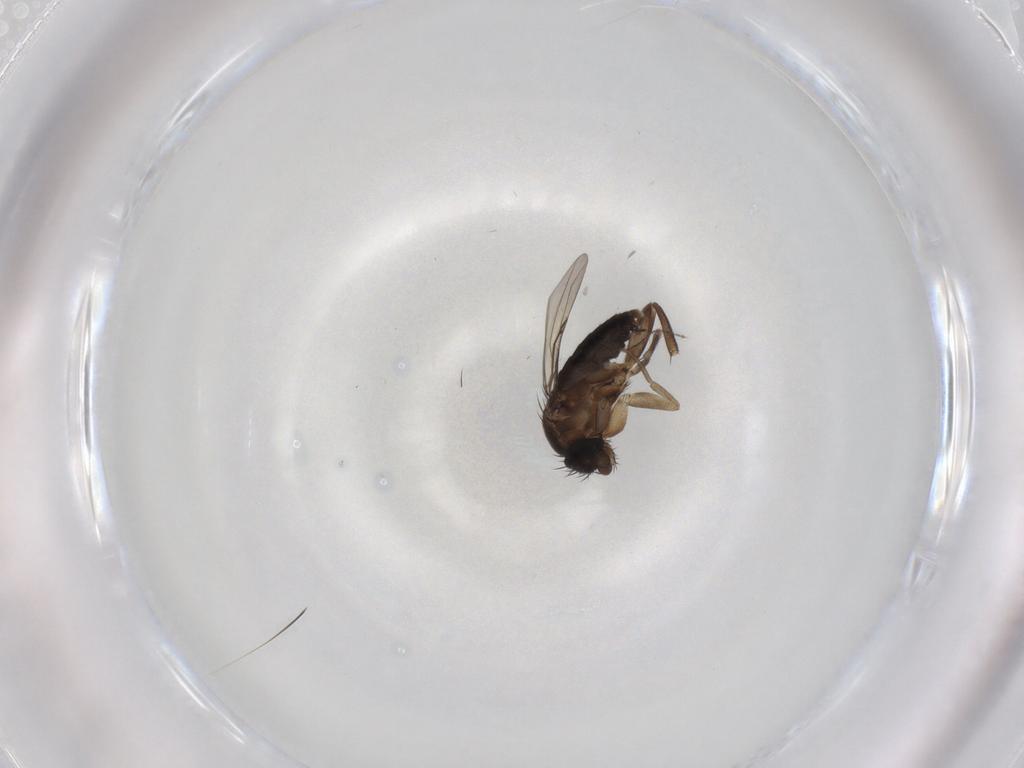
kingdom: Animalia
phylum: Arthropoda
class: Insecta
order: Diptera
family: Phoridae
